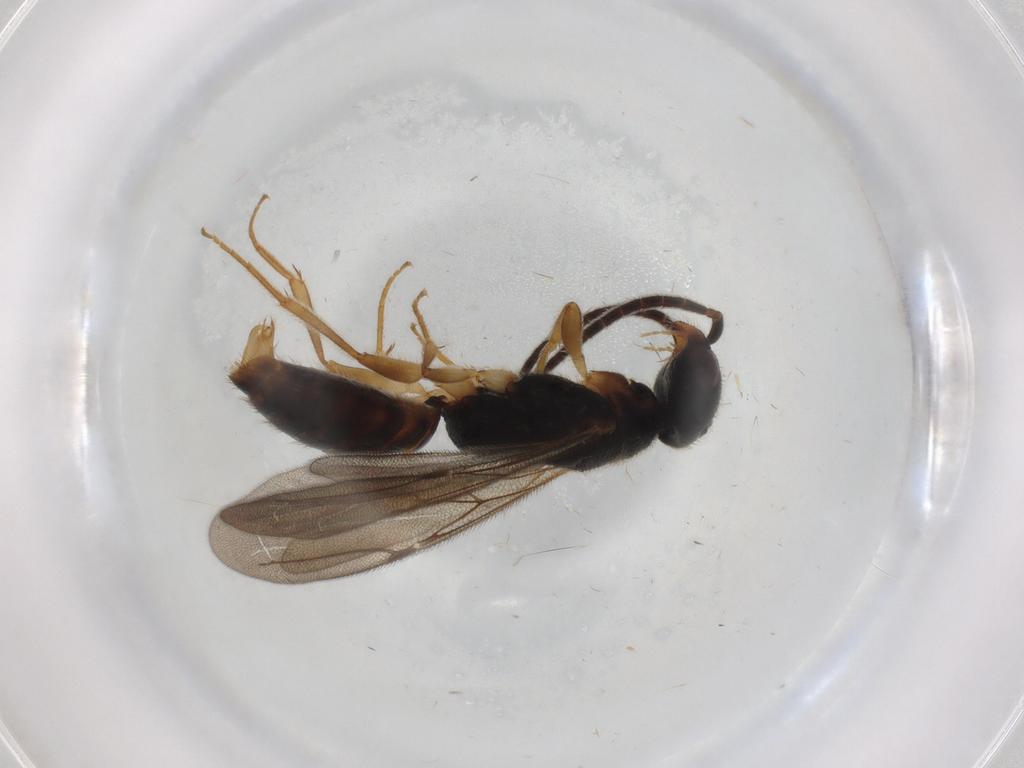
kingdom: Animalia
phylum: Arthropoda
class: Insecta
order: Hymenoptera
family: Bethylidae
